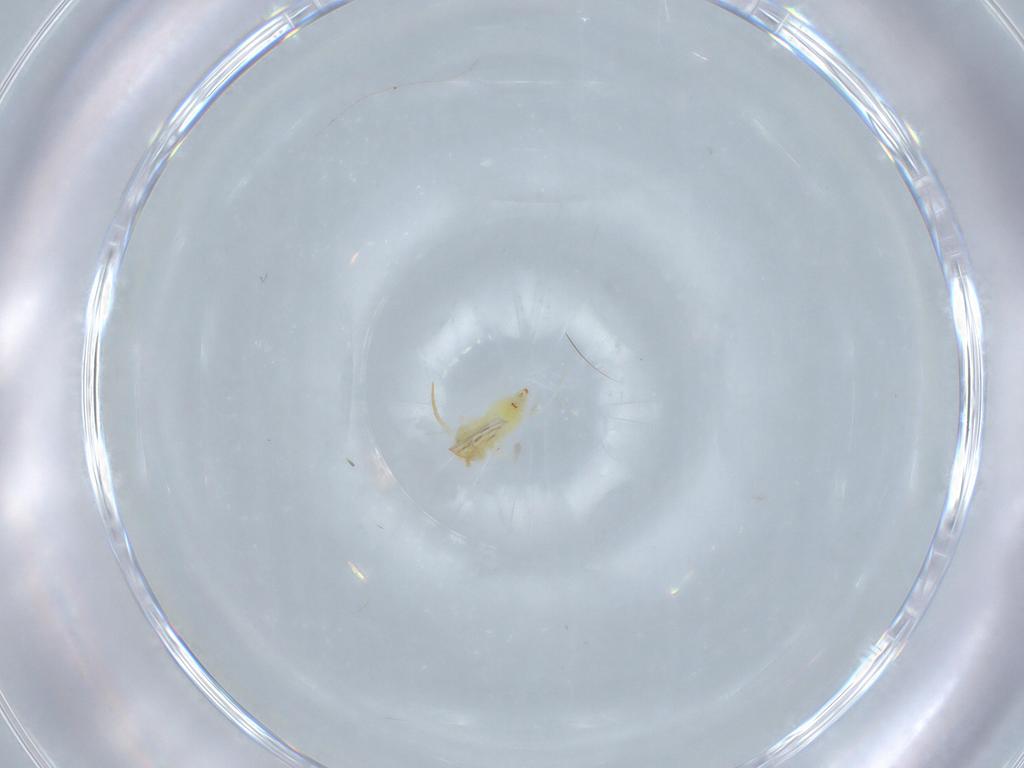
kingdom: Animalia
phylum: Arthropoda
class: Insecta
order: Hemiptera
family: Aleyrodidae
